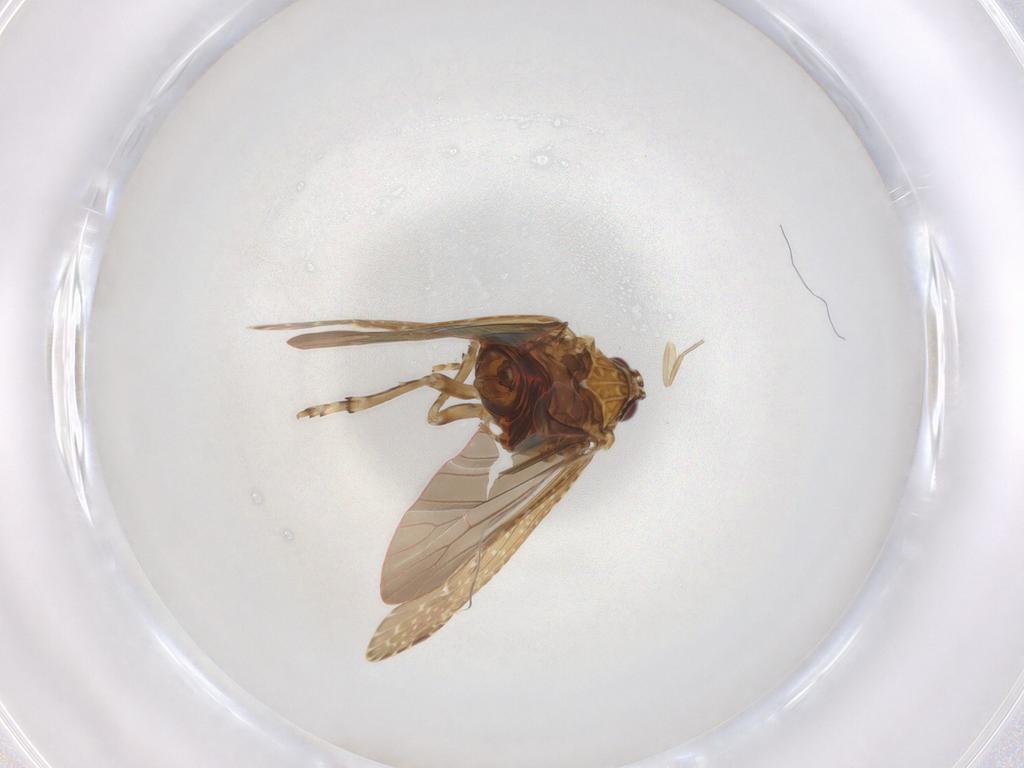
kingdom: Animalia
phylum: Arthropoda
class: Insecta
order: Hemiptera
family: Achilidae
